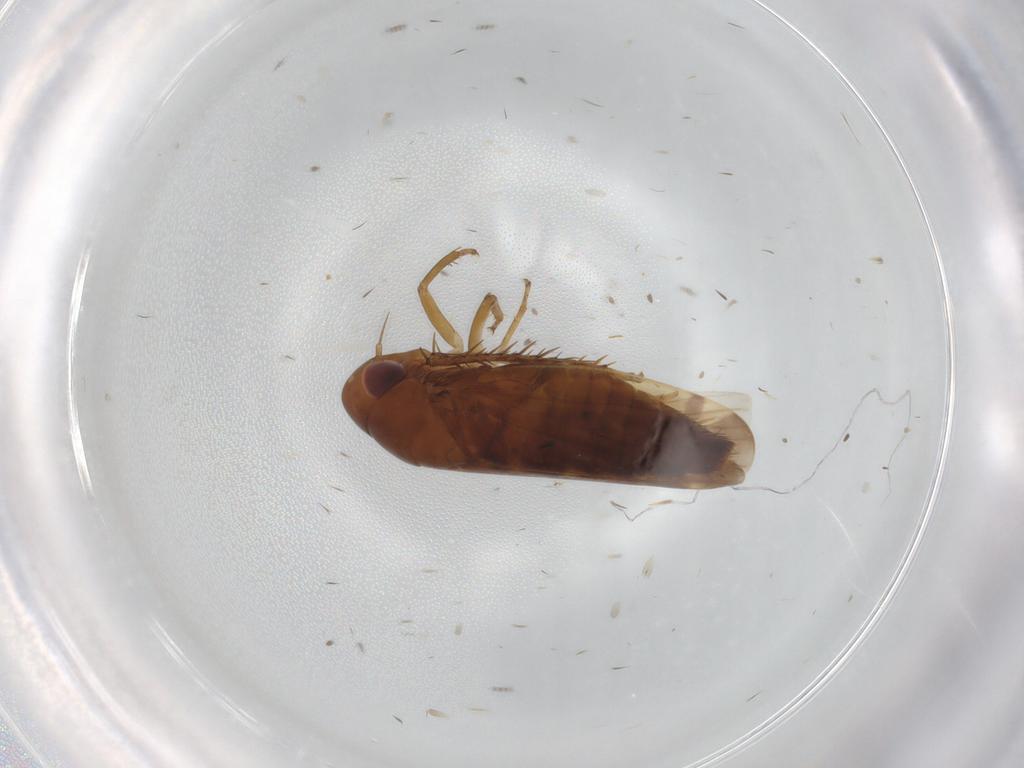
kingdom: Animalia
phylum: Arthropoda
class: Insecta
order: Hemiptera
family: Cicadellidae
